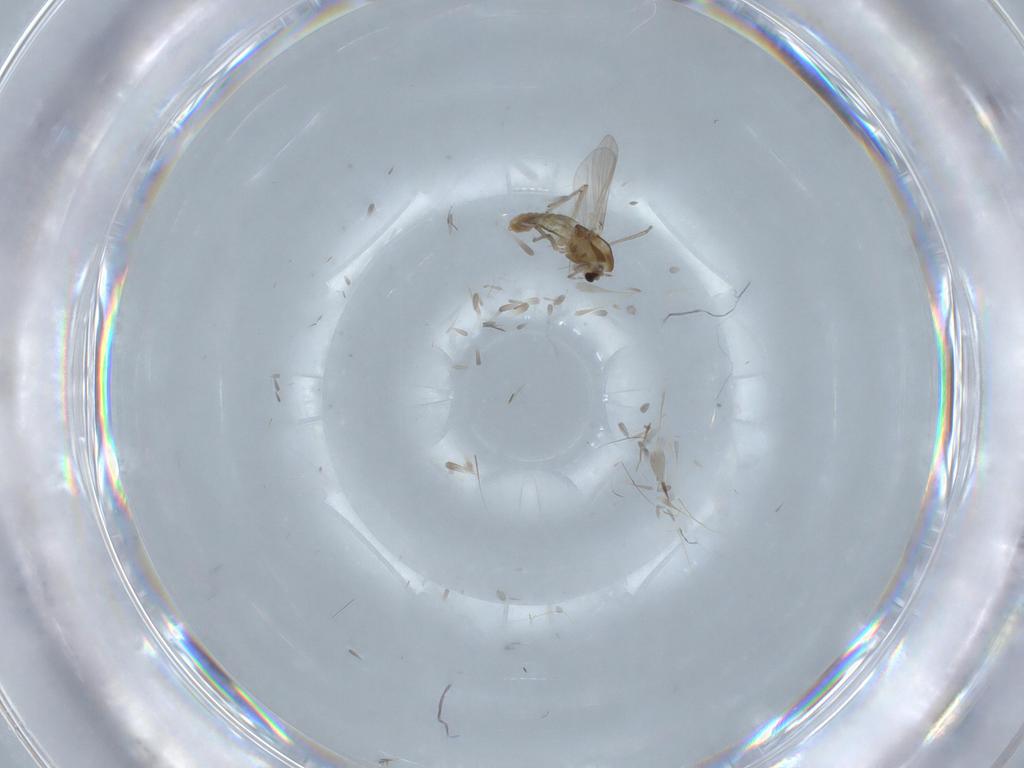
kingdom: Animalia
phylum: Arthropoda
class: Insecta
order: Diptera
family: Chironomidae
